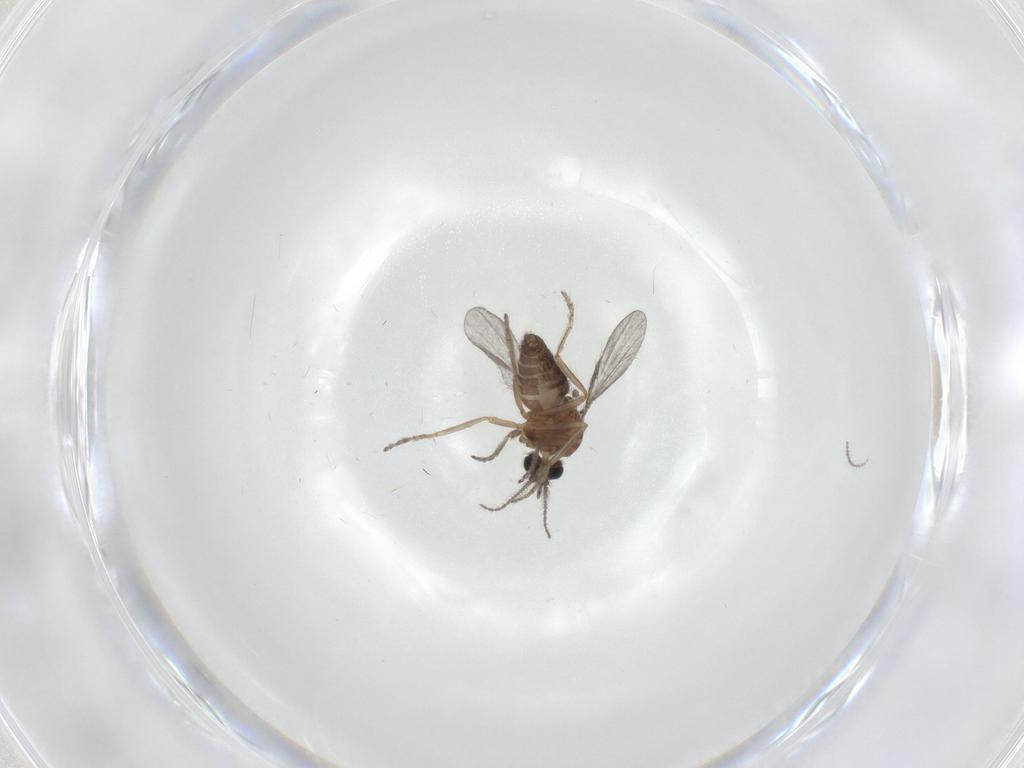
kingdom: Animalia
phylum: Arthropoda
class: Insecta
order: Diptera
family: Ceratopogonidae
